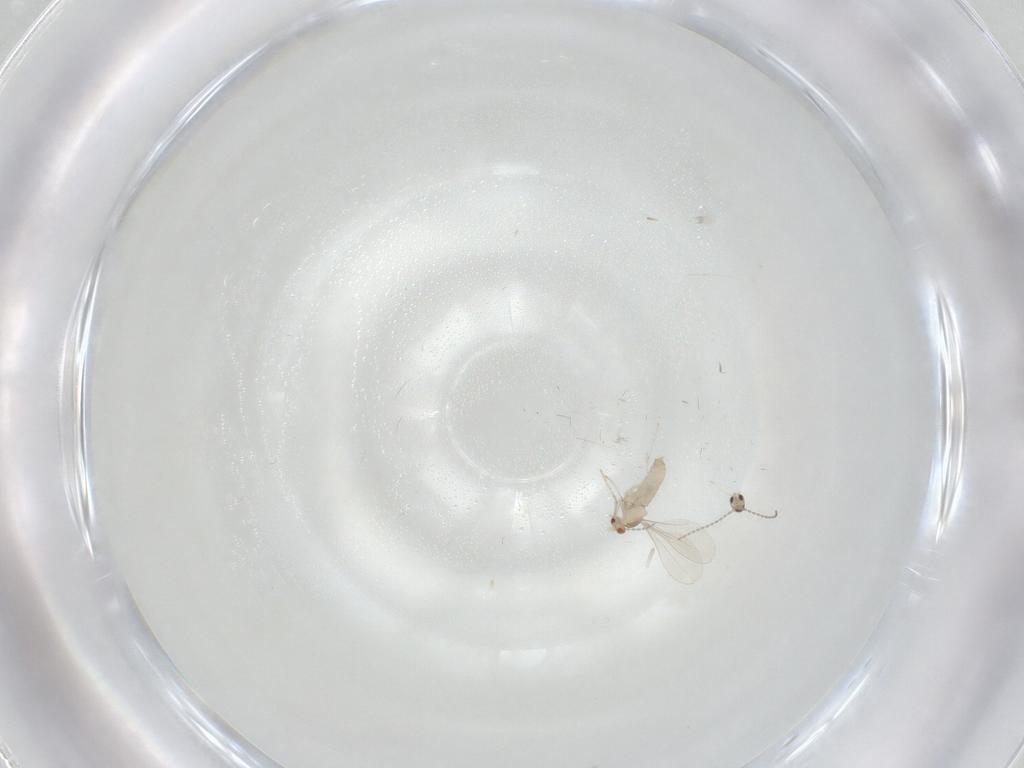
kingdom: Animalia
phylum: Arthropoda
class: Insecta
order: Diptera
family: Cecidomyiidae
